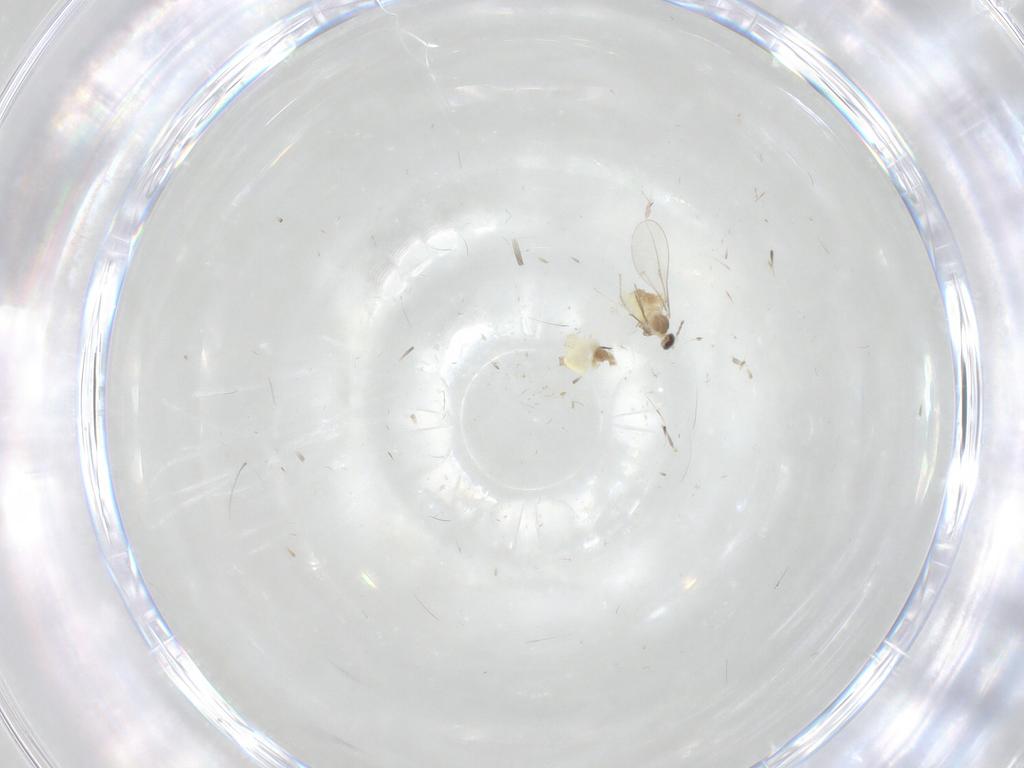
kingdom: Animalia
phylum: Arthropoda
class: Insecta
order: Diptera
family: Cecidomyiidae
